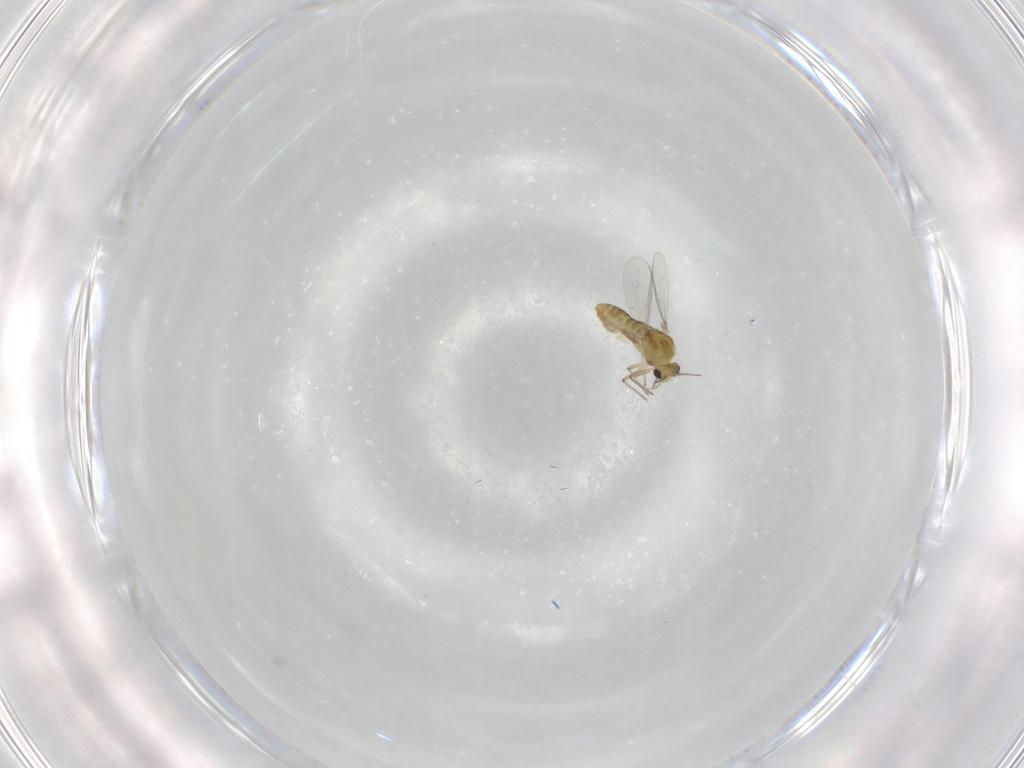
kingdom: Animalia
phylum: Arthropoda
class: Insecta
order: Diptera
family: Chironomidae
